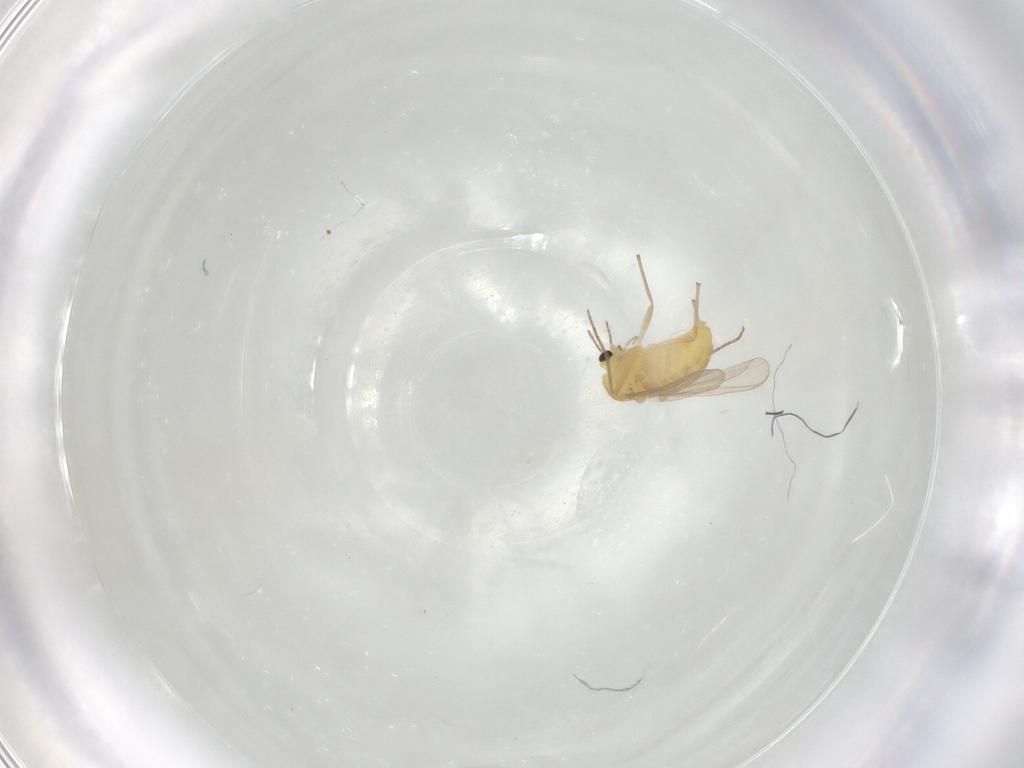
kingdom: Animalia
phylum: Arthropoda
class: Insecta
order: Diptera
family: Chironomidae
